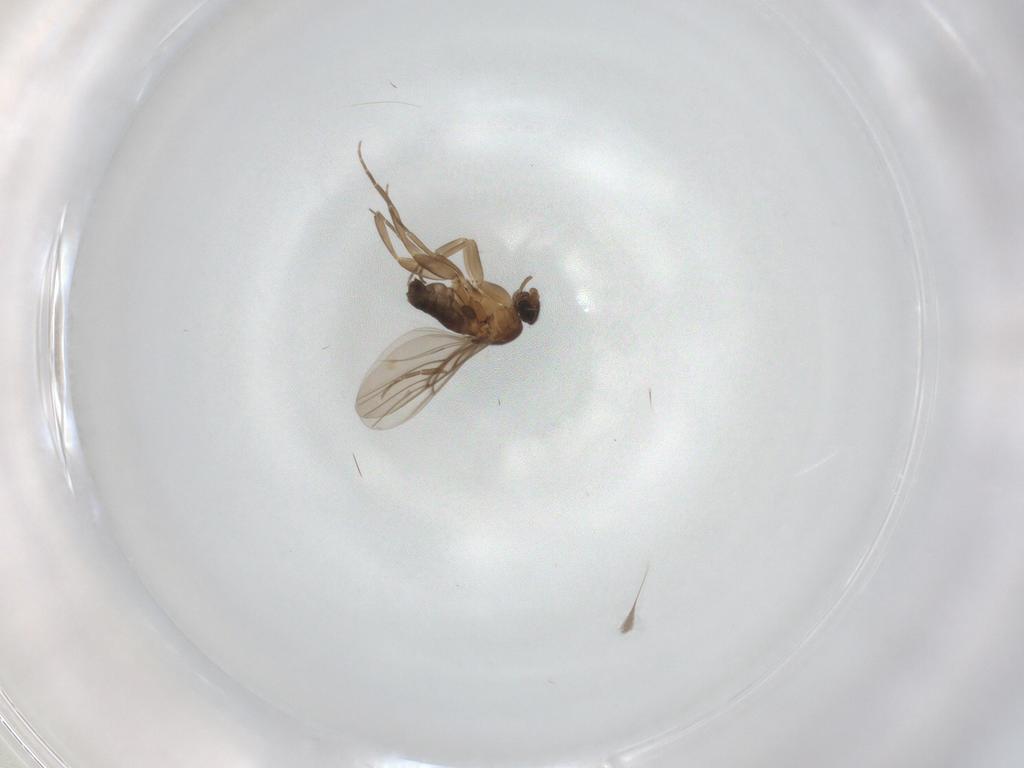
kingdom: Animalia
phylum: Arthropoda
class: Insecta
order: Diptera
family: Phoridae
